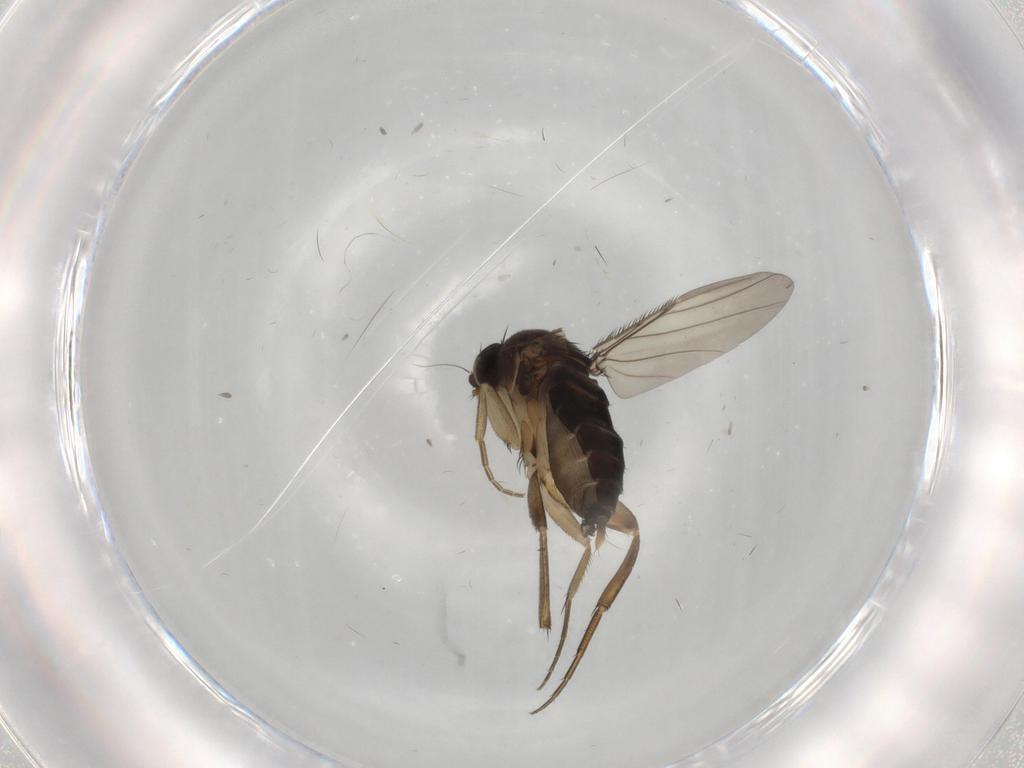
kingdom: Animalia
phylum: Arthropoda
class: Insecta
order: Diptera
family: Phoridae
